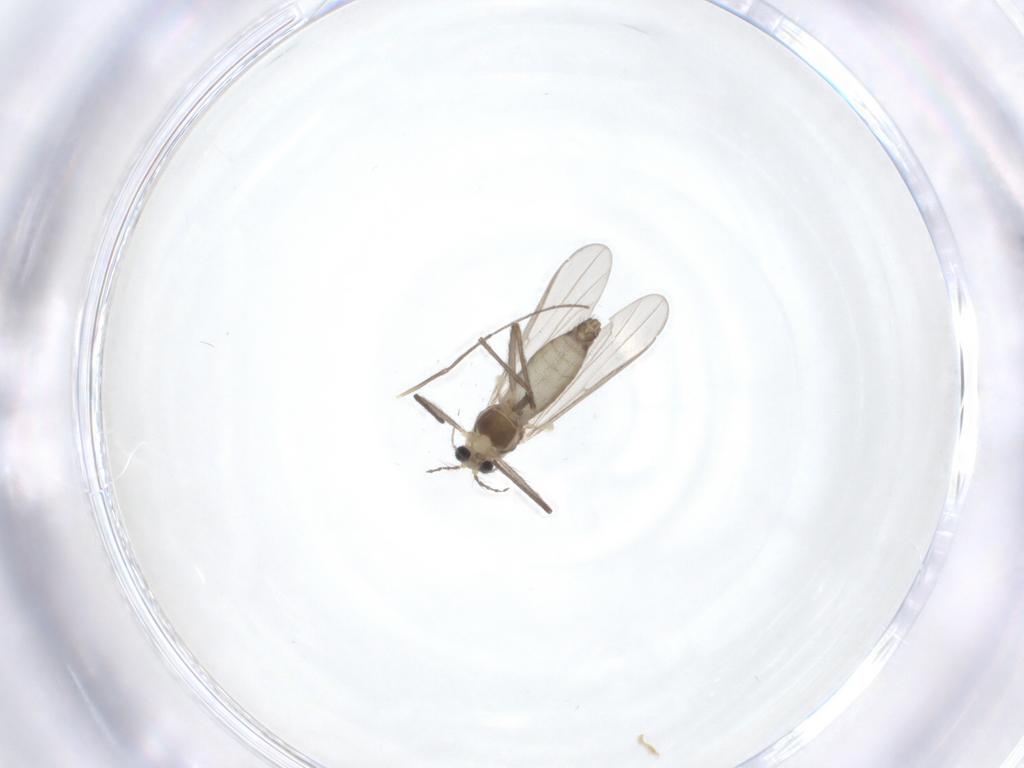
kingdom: Animalia
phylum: Arthropoda
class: Insecta
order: Diptera
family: Chironomidae
